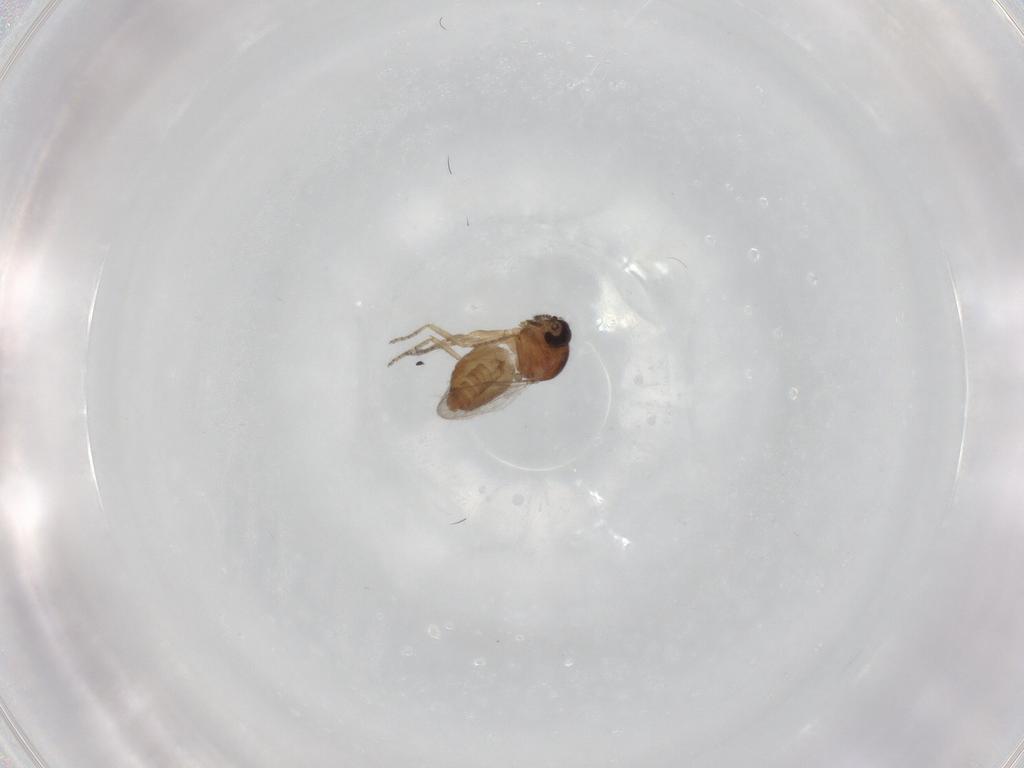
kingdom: Animalia
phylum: Arthropoda
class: Insecta
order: Diptera
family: Ceratopogonidae
